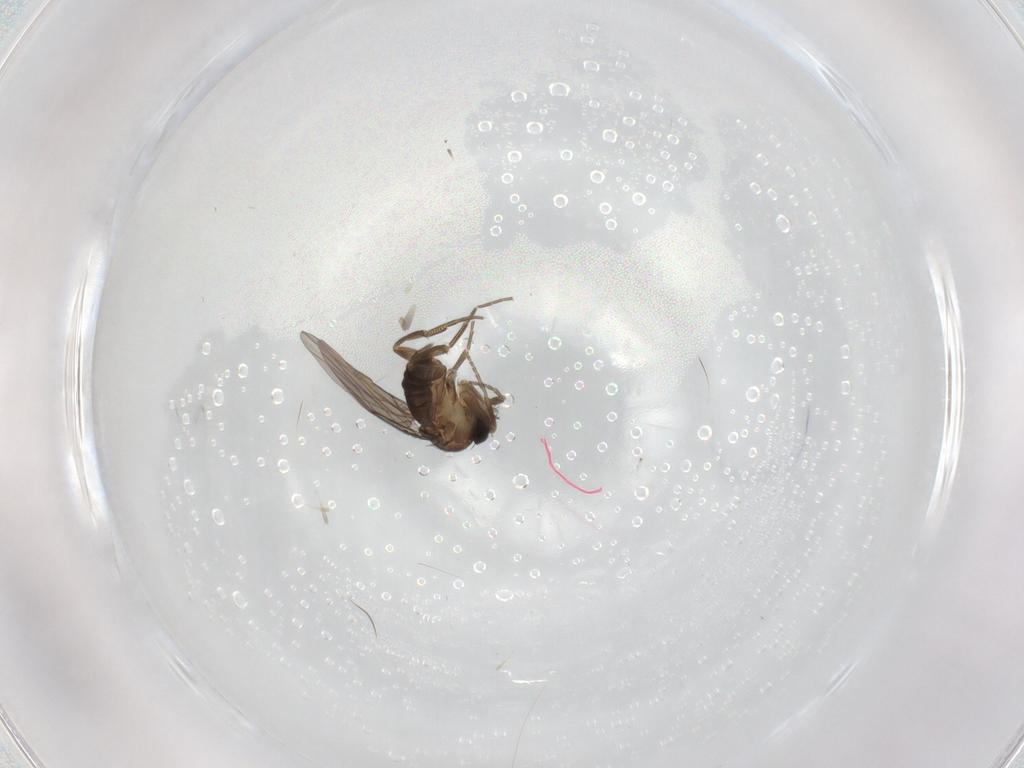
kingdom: Animalia
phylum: Arthropoda
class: Insecta
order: Diptera
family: Phoridae
